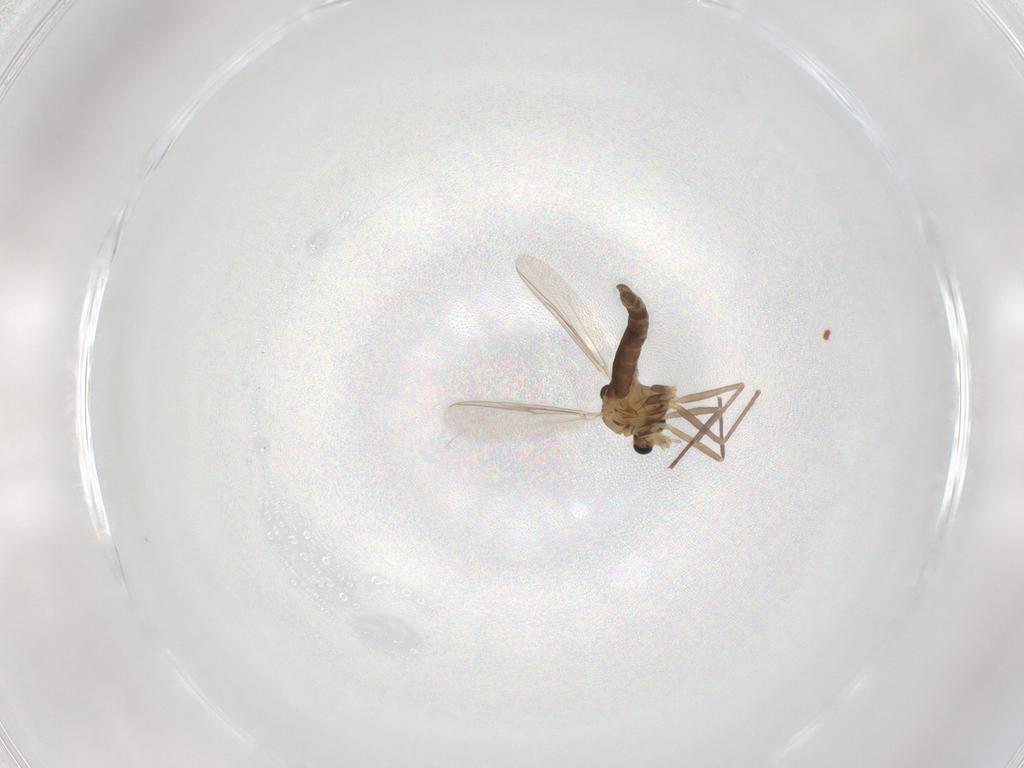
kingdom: Animalia
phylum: Arthropoda
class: Insecta
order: Diptera
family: Chironomidae
